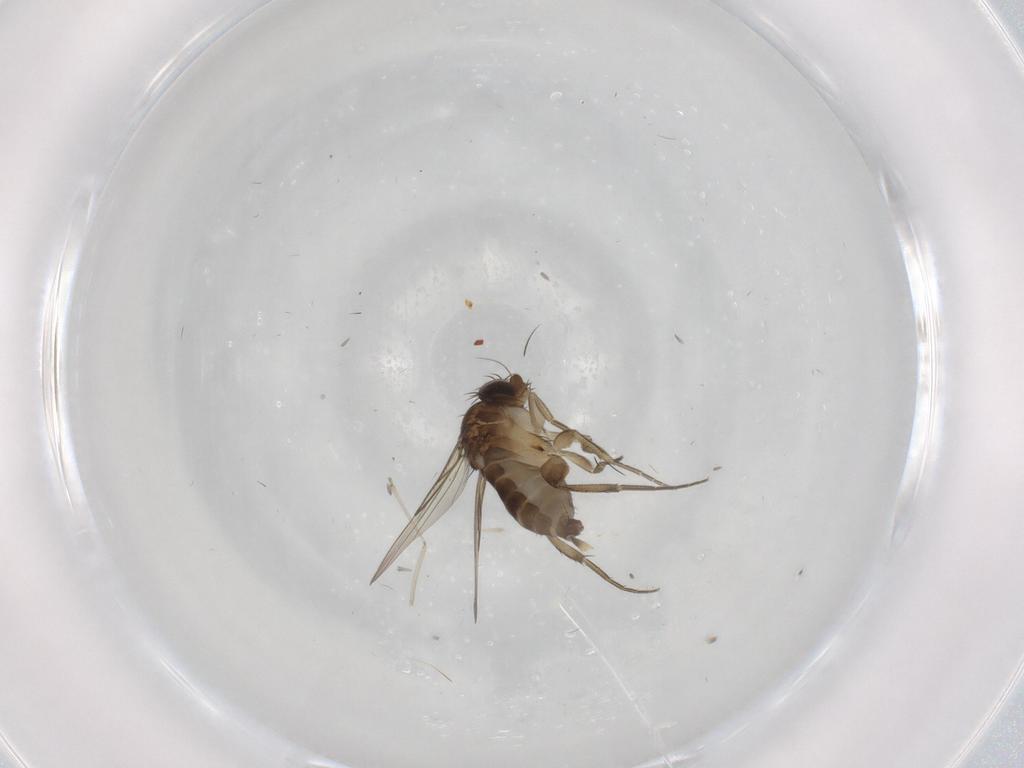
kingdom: Animalia
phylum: Arthropoda
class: Insecta
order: Diptera
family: Phoridae
